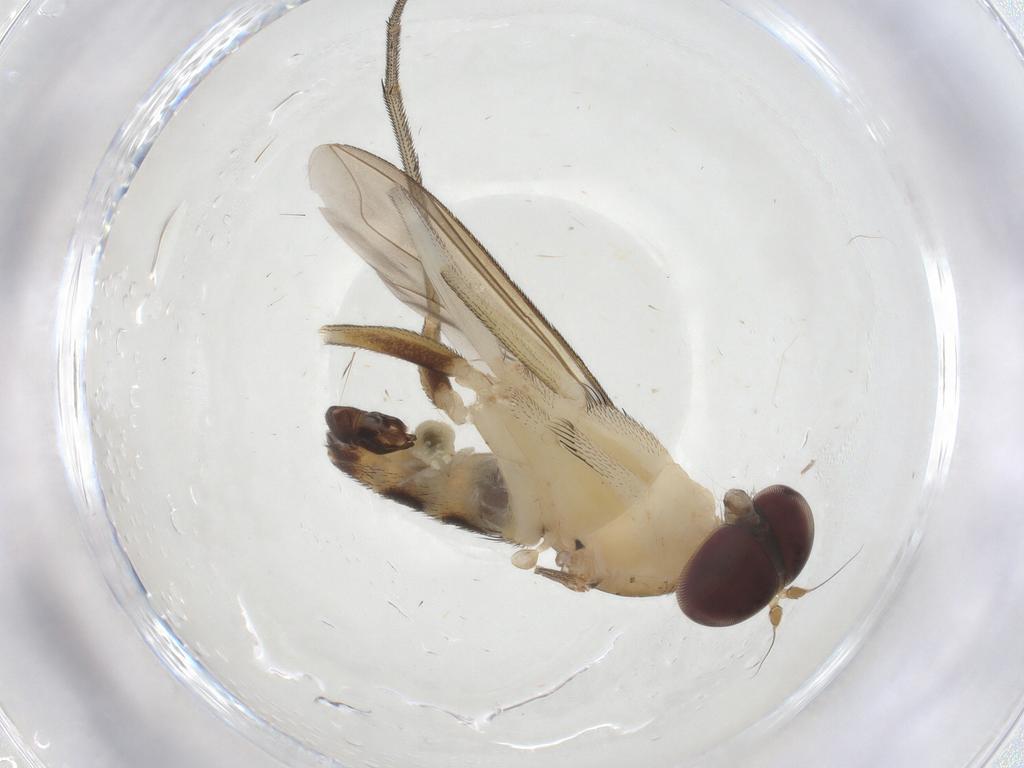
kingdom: Animalia
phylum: Arthropoda
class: Insecta
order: Diptera
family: Dolichopodidae
